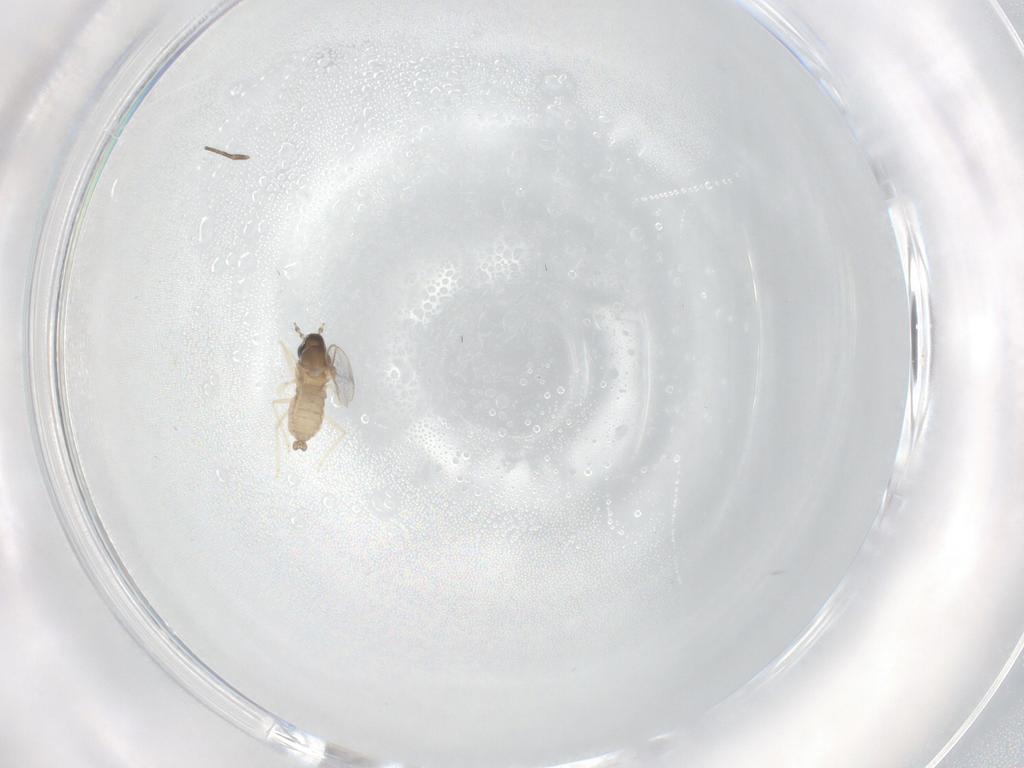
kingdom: Animalia
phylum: Arthropoda
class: Insecta
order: Diptera
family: Cecidomyiidae
